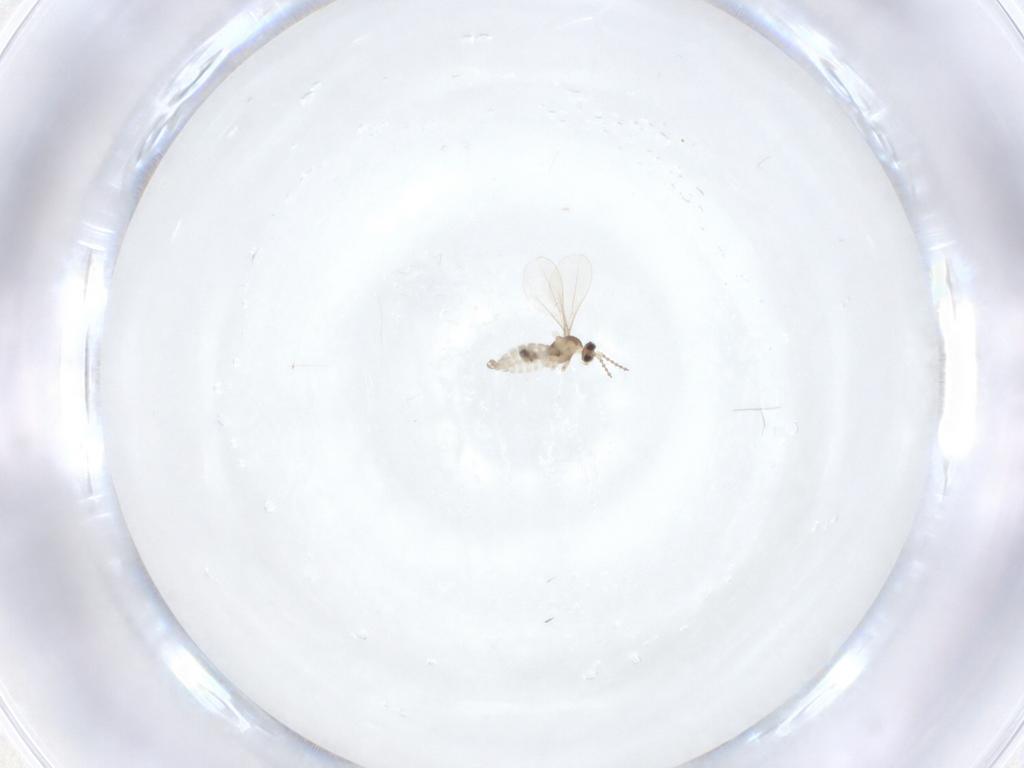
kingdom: Animalia
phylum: Arthropoda
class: Insecta
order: Diptera
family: Cecidomyiidae
